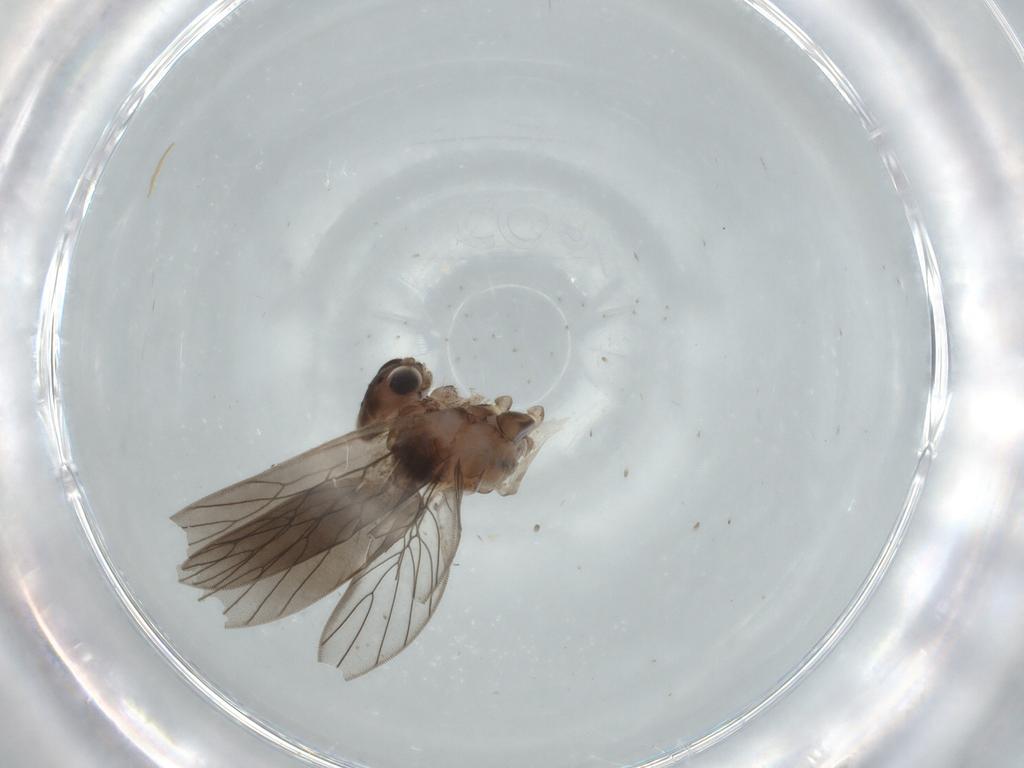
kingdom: Animalia
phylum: Arthropoda
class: Insecta
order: Psocodea
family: Lepidopsocidae
